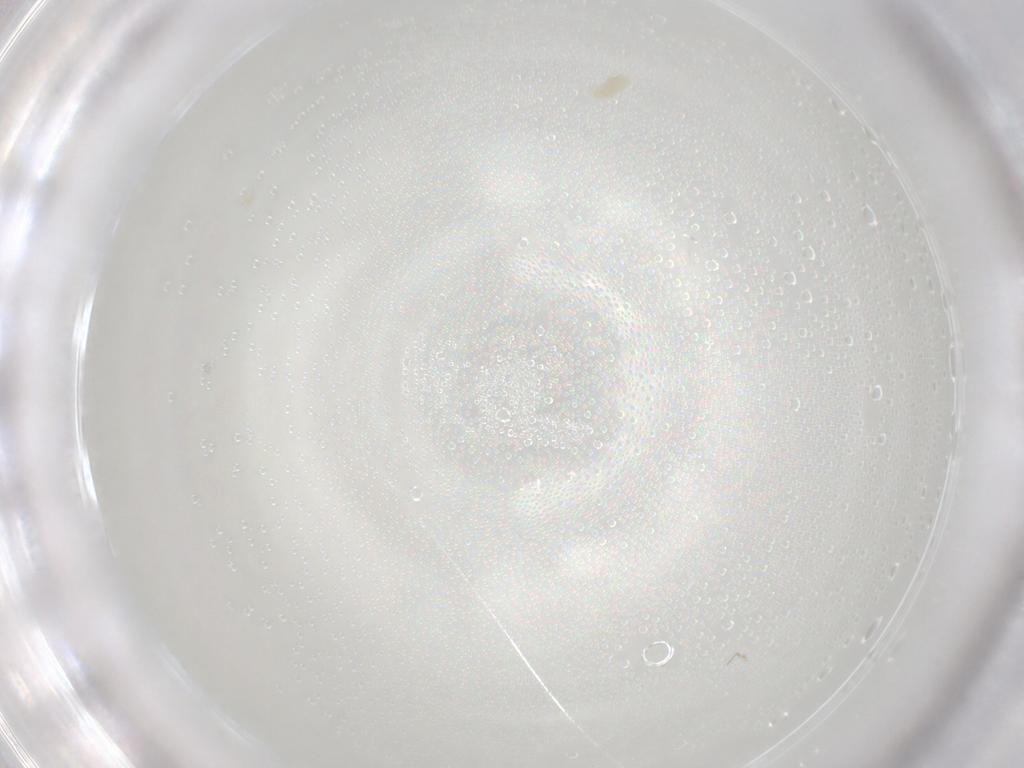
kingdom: Animalia
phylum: Arthropoda
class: Arachnida
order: Trombidiformes
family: Eupodidae
